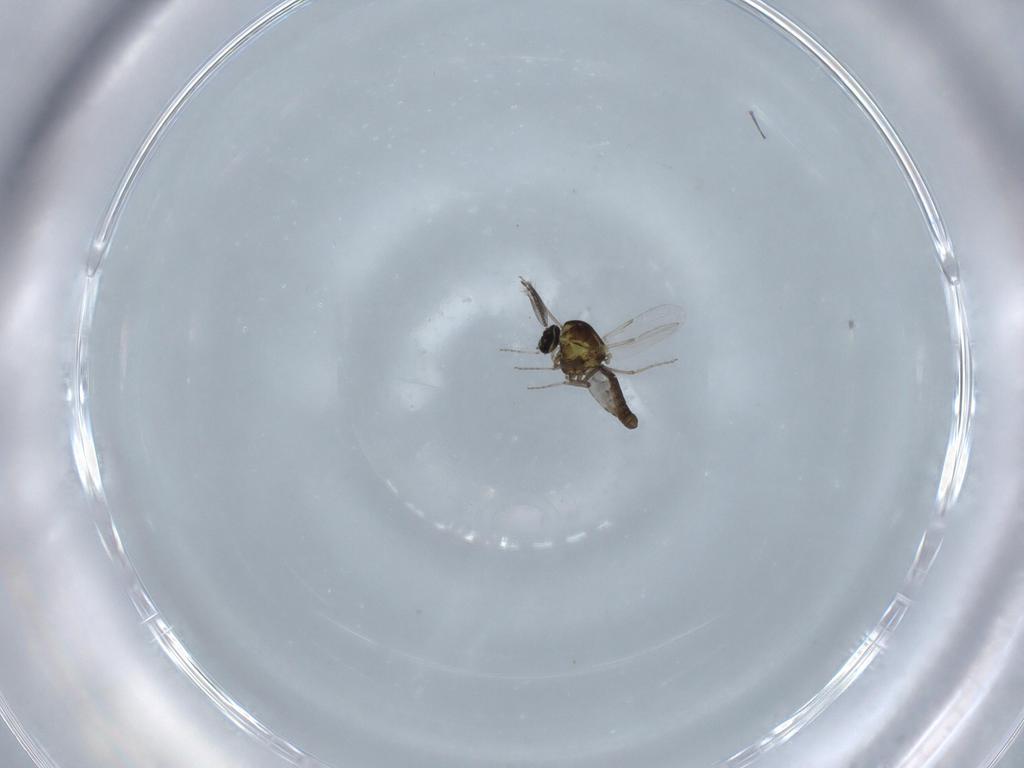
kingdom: Animalia
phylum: Arthropoda
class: Insecta
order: Diptera
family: Ceratopogonidae
